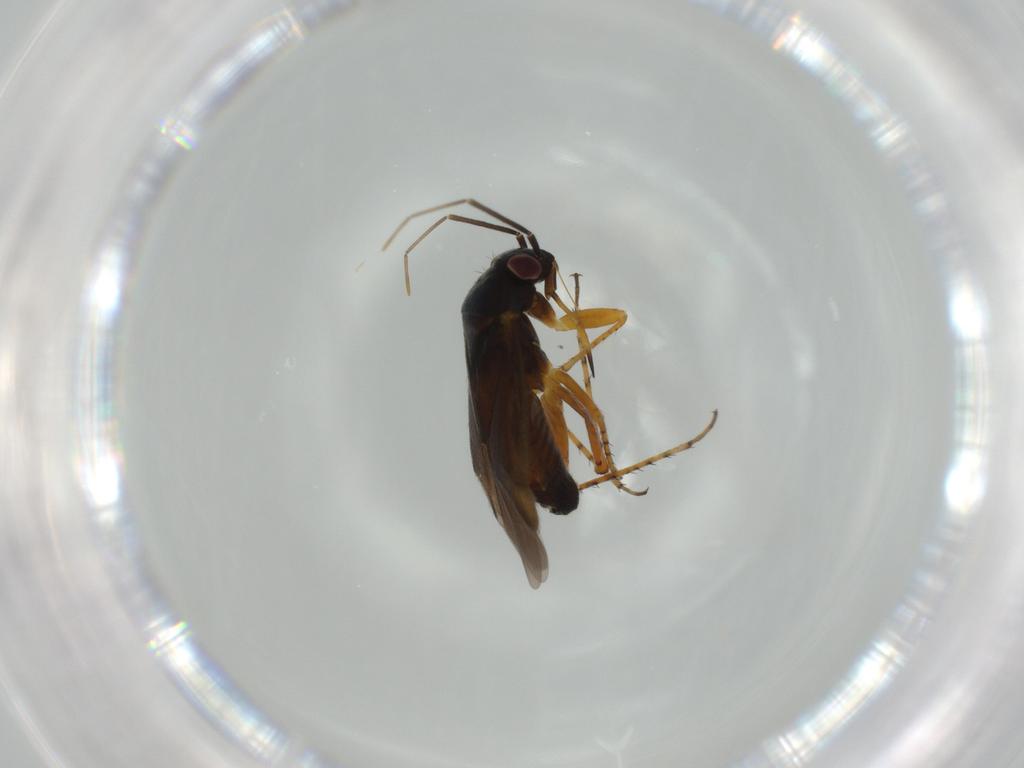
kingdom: Animalia
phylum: Arthropoda
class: Insecta
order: Hemiptera
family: Miridae
